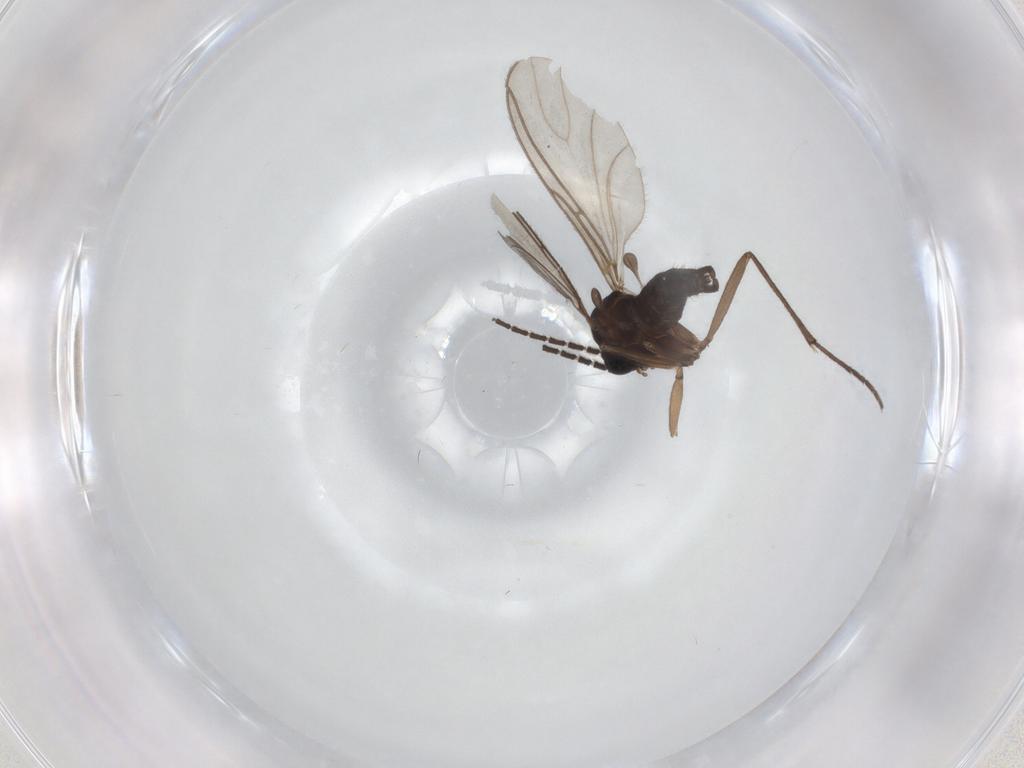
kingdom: Animalia
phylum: Arthropoda
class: Insecta
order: Diptera
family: Sciaridae
